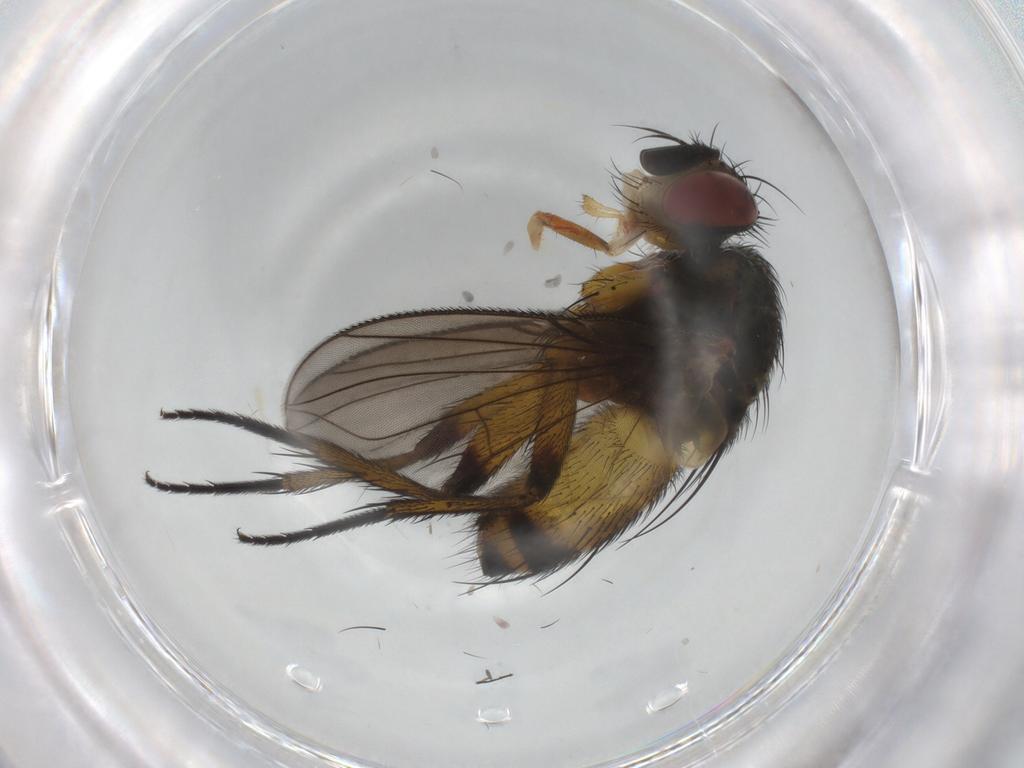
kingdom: Animalia
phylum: Arthropoda
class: Insecta
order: Diptera
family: Tachinidae
